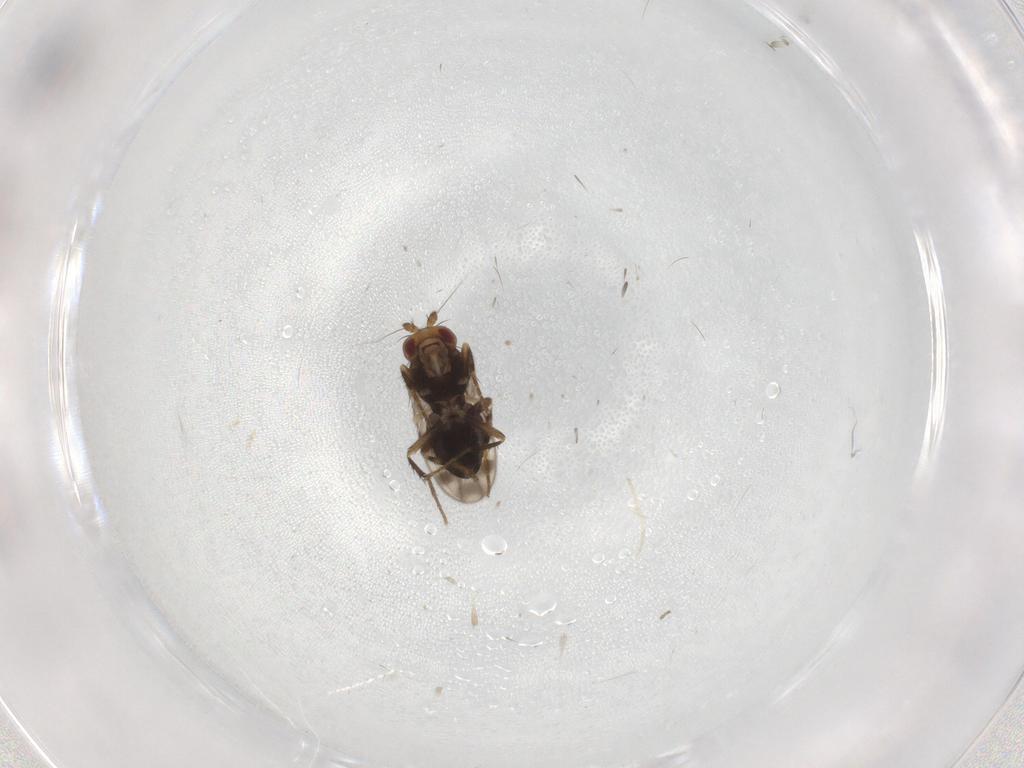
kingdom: Animalia
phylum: Arthropoda
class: Insecta
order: Diptera
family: Sphaeroceridae
